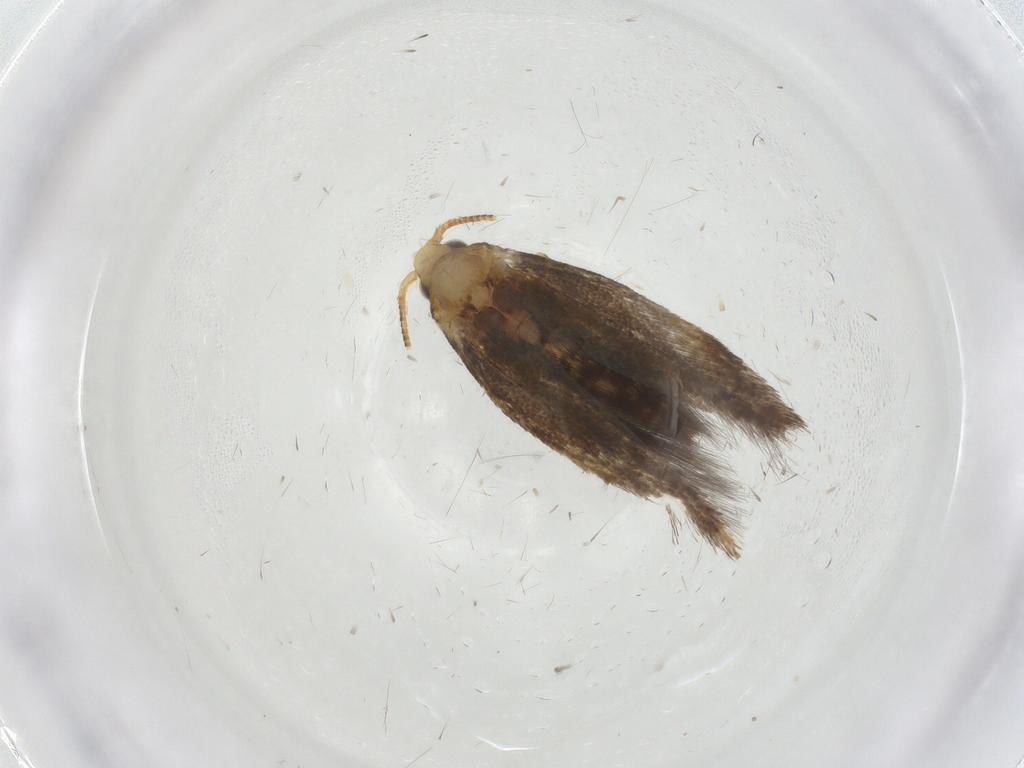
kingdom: Animalia
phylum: Arthropoda
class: Insecta
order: Lepidoptera
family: Tineidae
